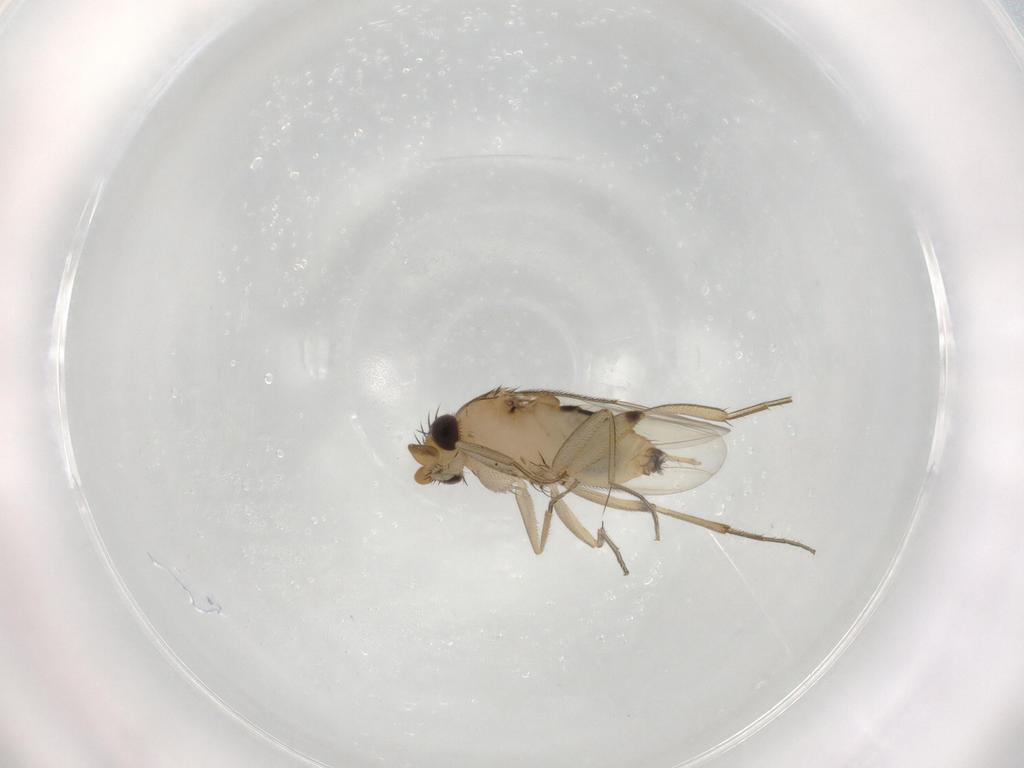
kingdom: Animalia
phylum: Arthropoda
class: Insecta
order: Diptera
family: Phoridae
